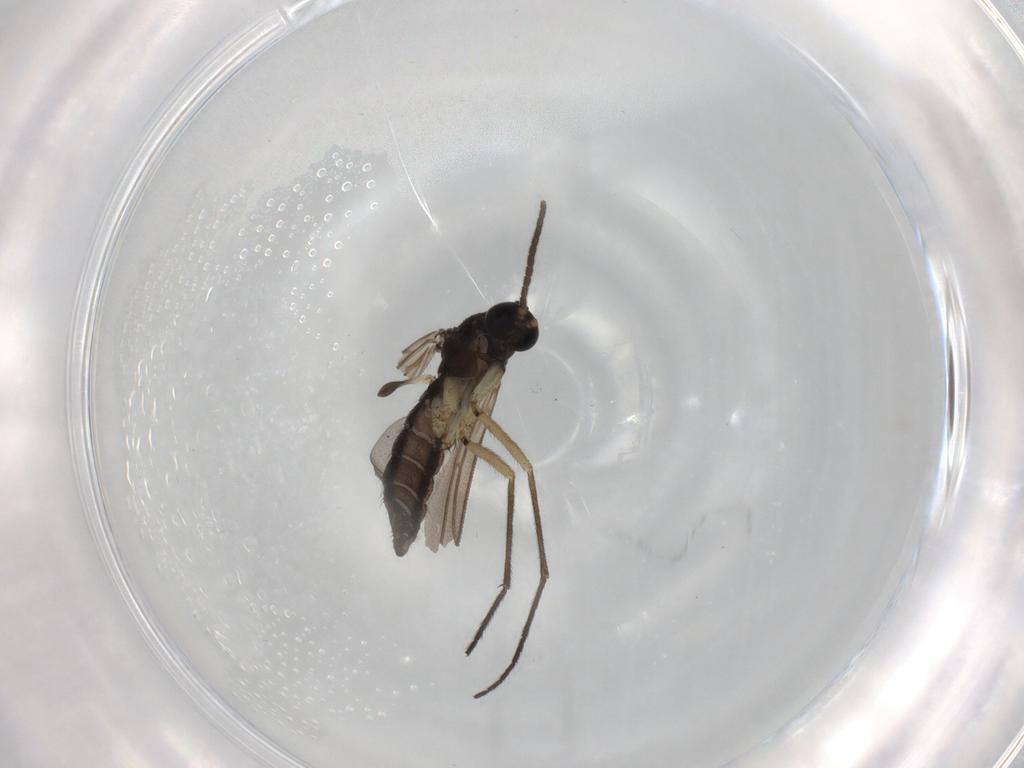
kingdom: Animalia
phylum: Arthropoda
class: Insecta
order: Diptera
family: Sciaridae
